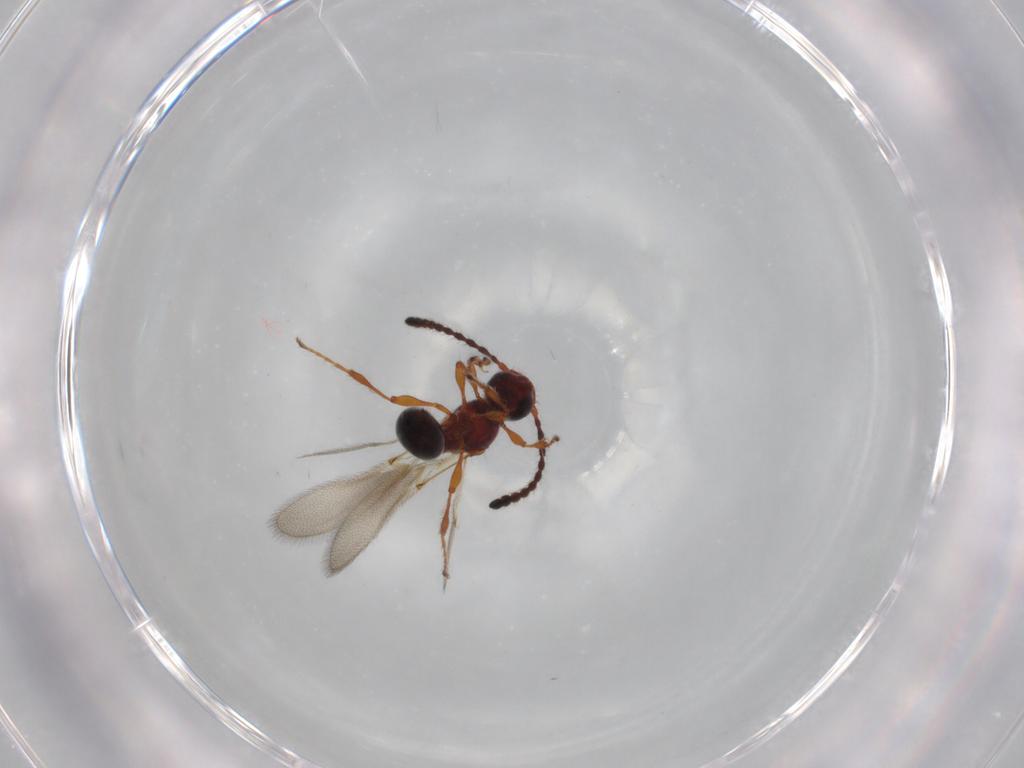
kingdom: Animalia
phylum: Arthropoda
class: Insecta
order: Hymenoptera
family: Diapriidae
